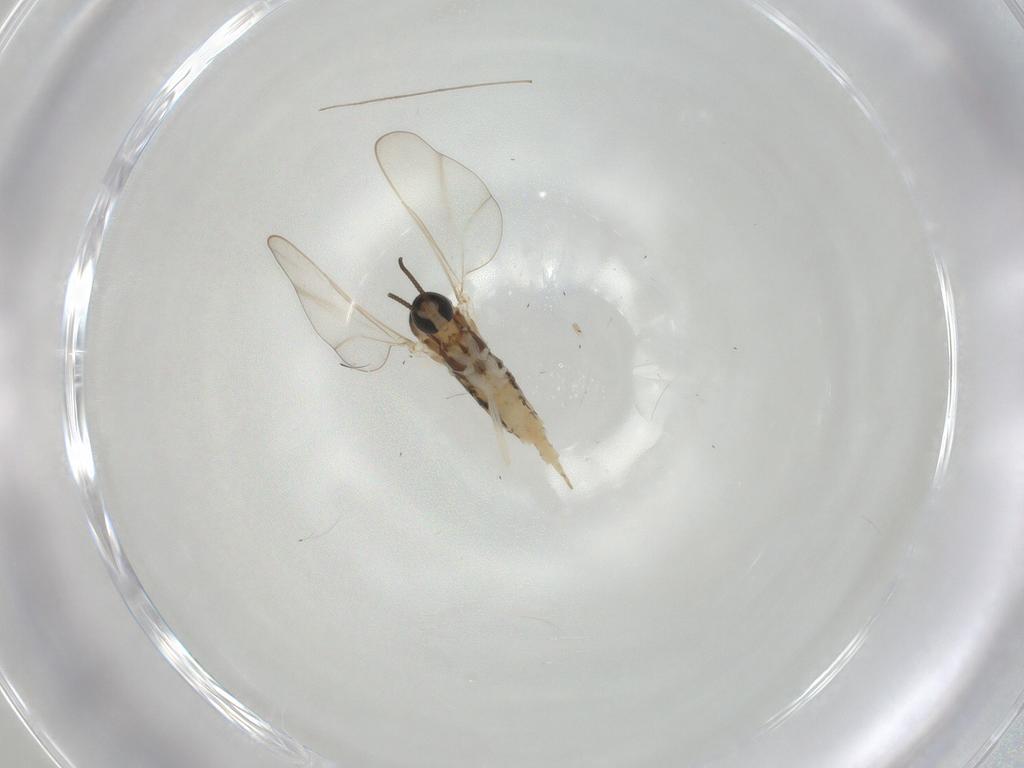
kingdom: Animalia
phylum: Arthropoda
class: Insecta
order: Diptera
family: Cecidomyiidae
